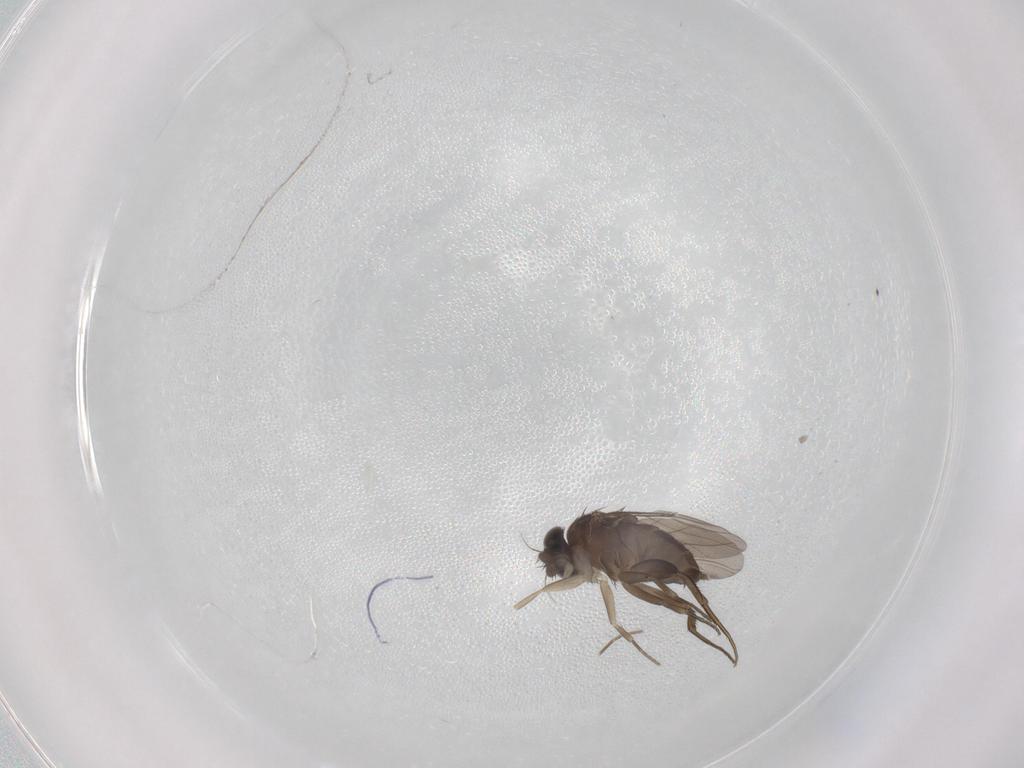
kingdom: Animalia
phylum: Arthropoda
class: Insecta
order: Diptera
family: Phoridae
